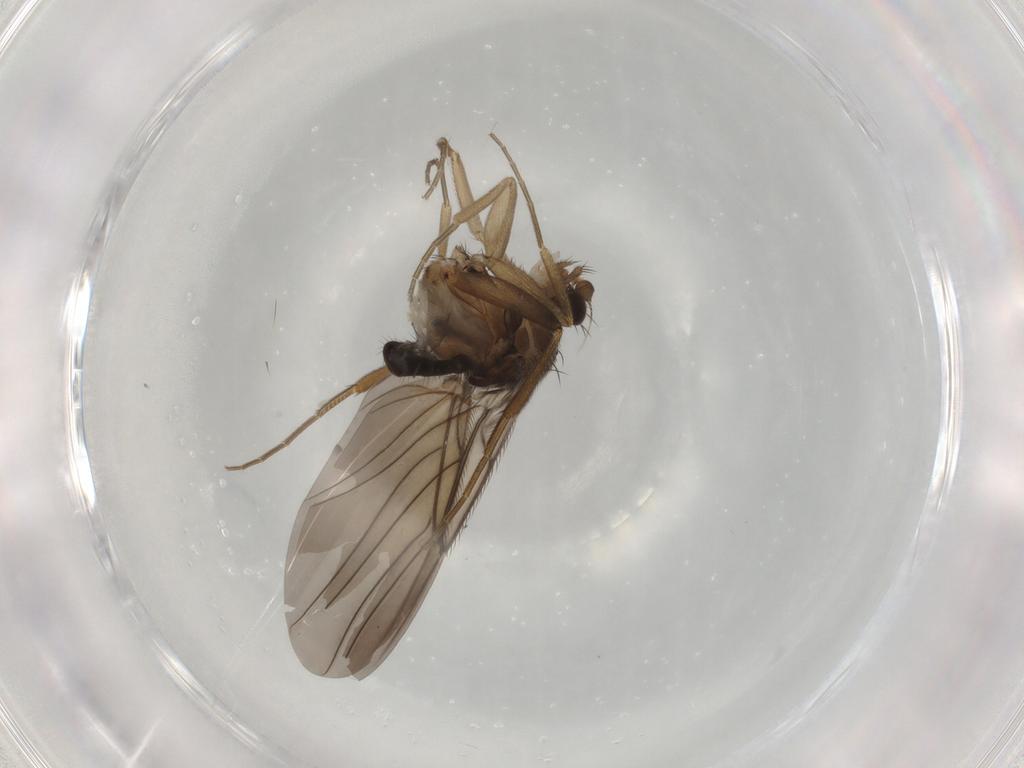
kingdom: Animalia
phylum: Arthropoda
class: Insecta
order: Diptera
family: Phoridae
